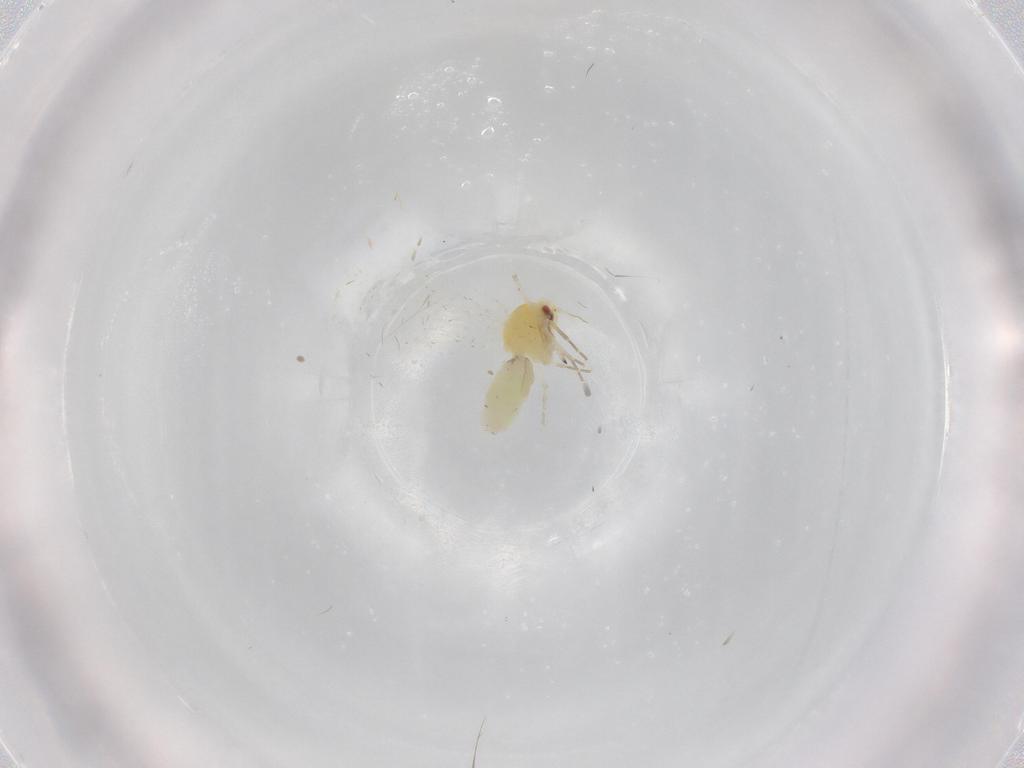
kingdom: Animalia
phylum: Arthropoda
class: Insecta
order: Hemiptera
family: Aleyrodidae
